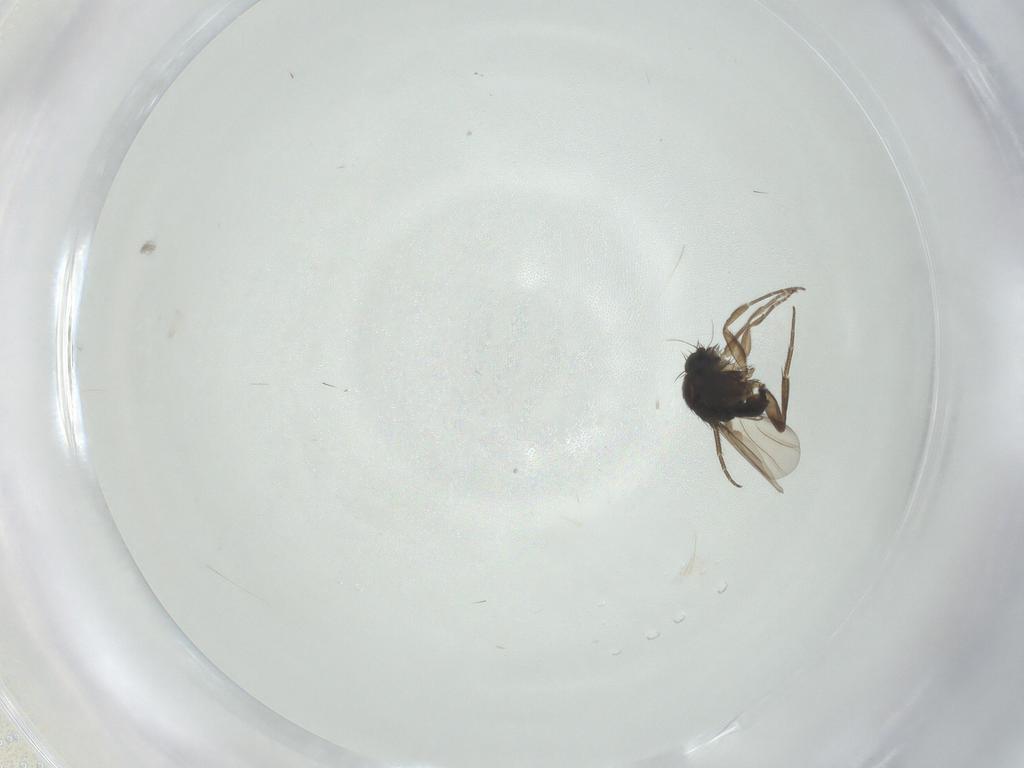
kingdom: Animalia
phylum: Arthropoda
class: Insecta
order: Diptera
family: Phoridae
